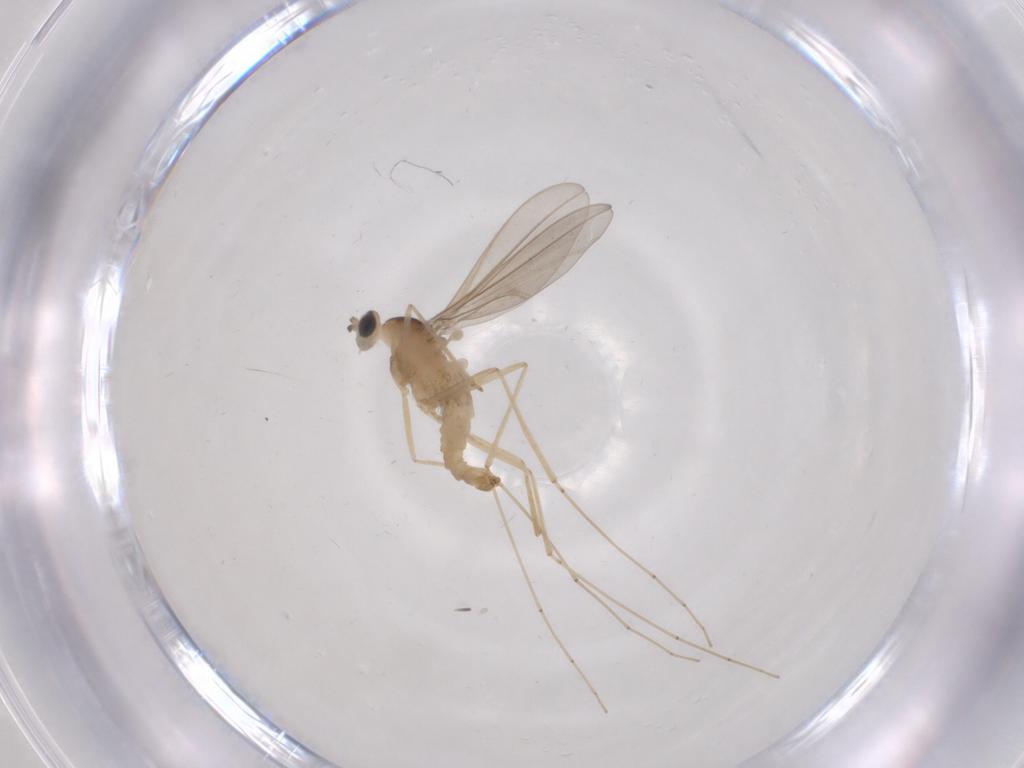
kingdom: Animalia
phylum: Arthropoda
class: Insecta
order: Diptera
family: Cecidomyiidae
